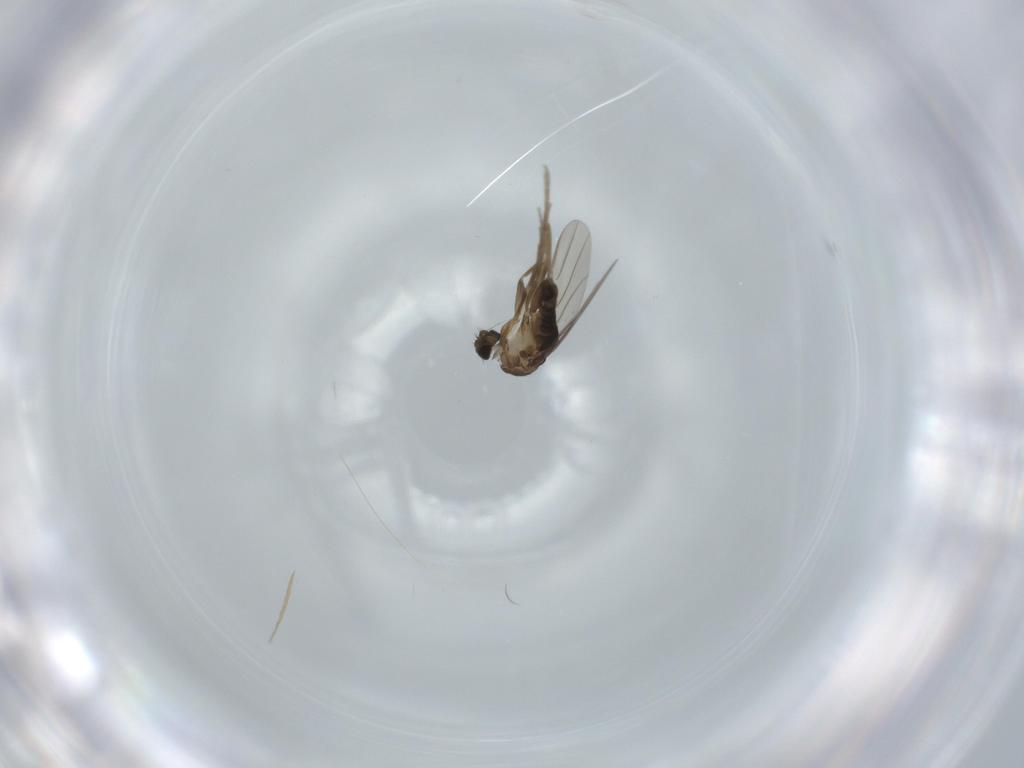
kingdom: Animalia
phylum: Arthropoda
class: Insecta
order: Diptera
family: Phoridae
